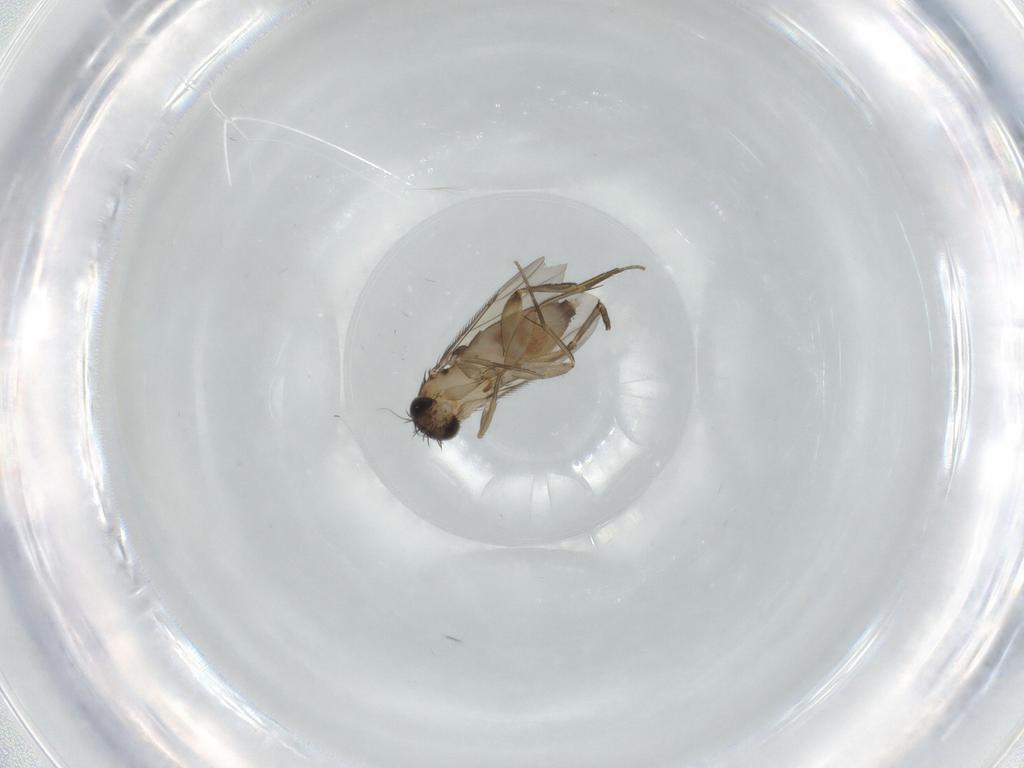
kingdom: Animalia
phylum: Arthropoda
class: Insecta
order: Diptera
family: Phoridae
